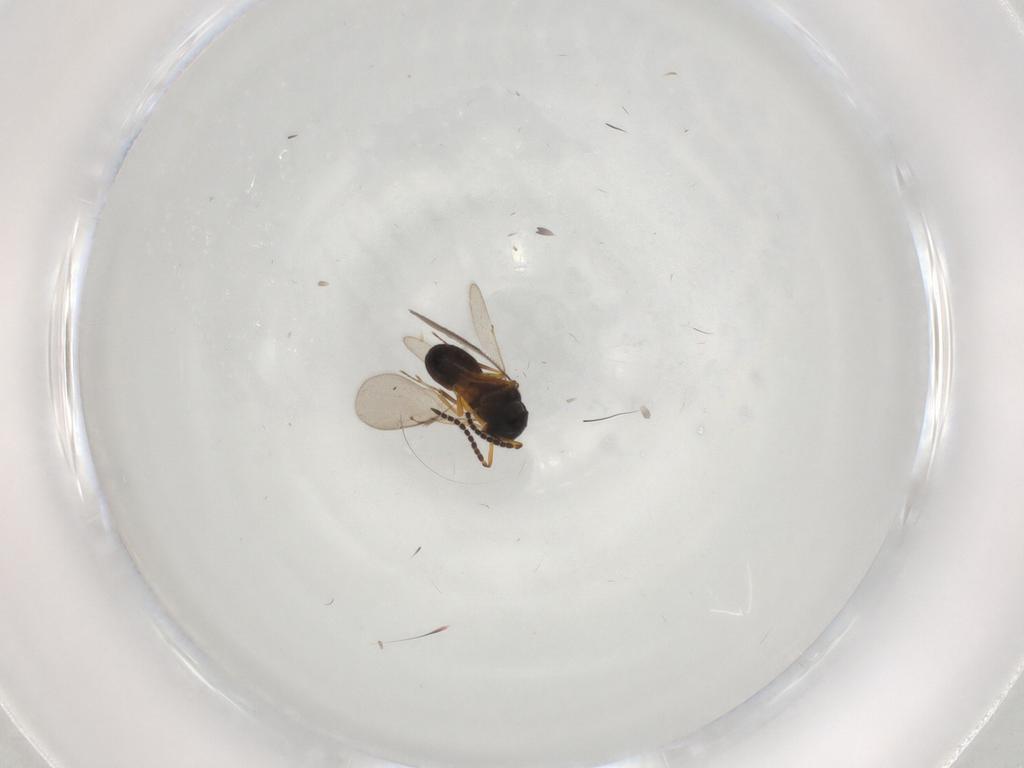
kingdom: Animalia
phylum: Arthropoda
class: Insecta
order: Hymenoptera
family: Scelionidae
